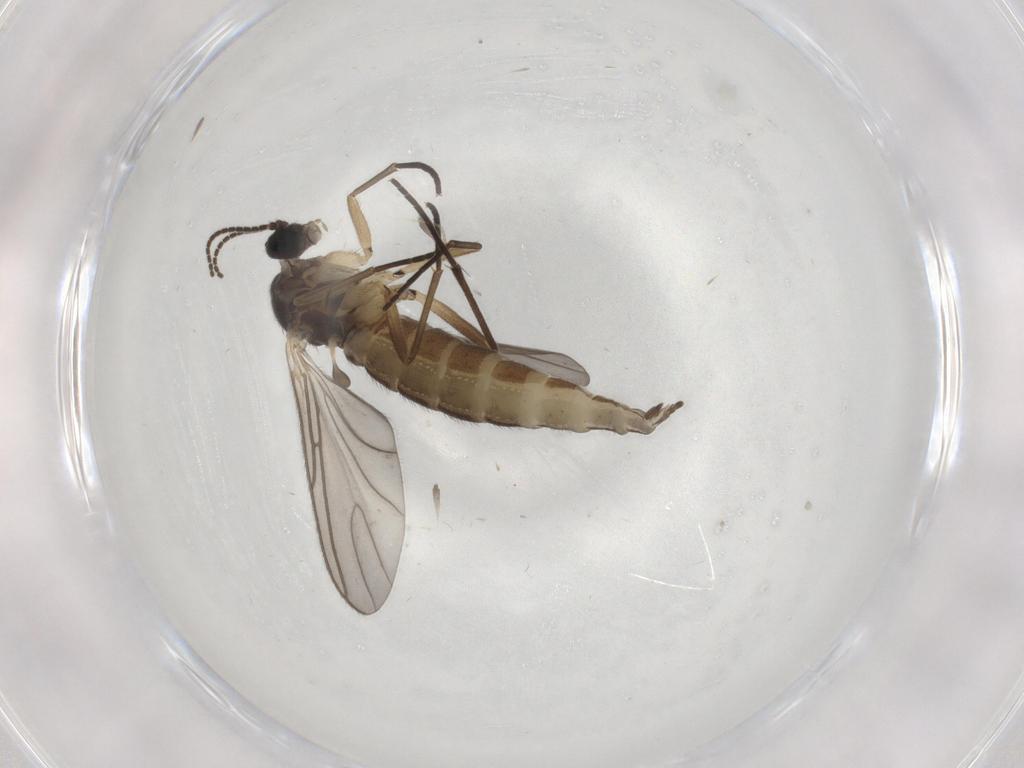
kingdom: Animalia
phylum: Arthropoda
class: Insecta
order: Diptera
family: Sciaridae
